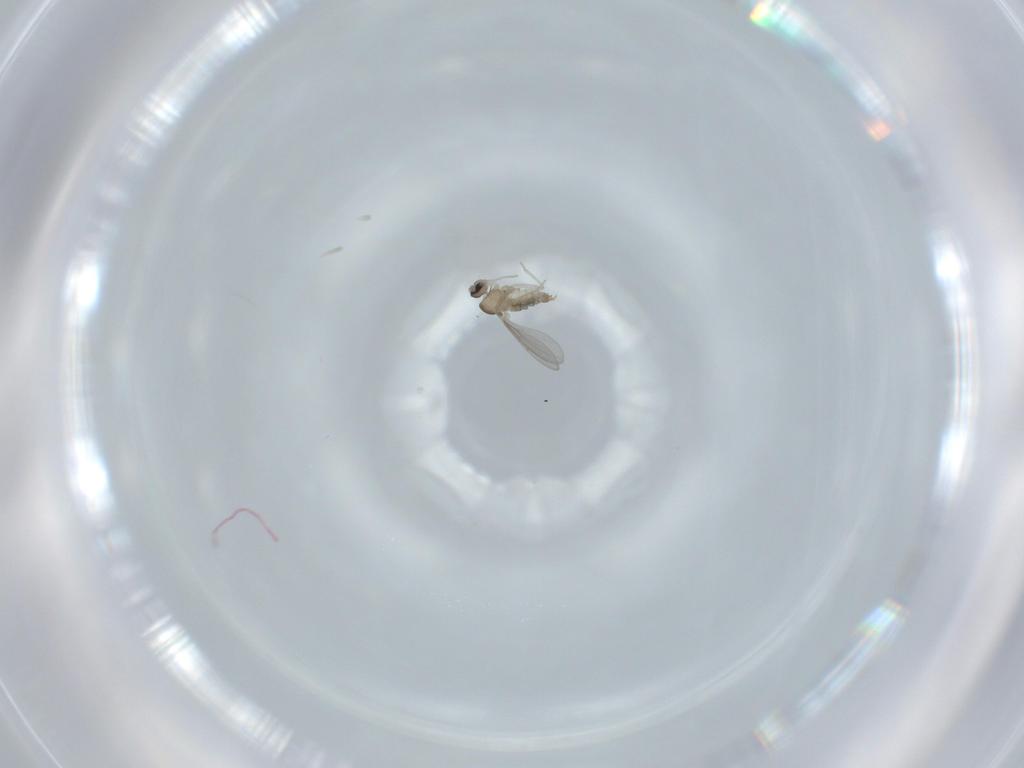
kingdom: Animalia
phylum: Arthropoda
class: Insecta
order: Diptera
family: Cecidomyiidae
